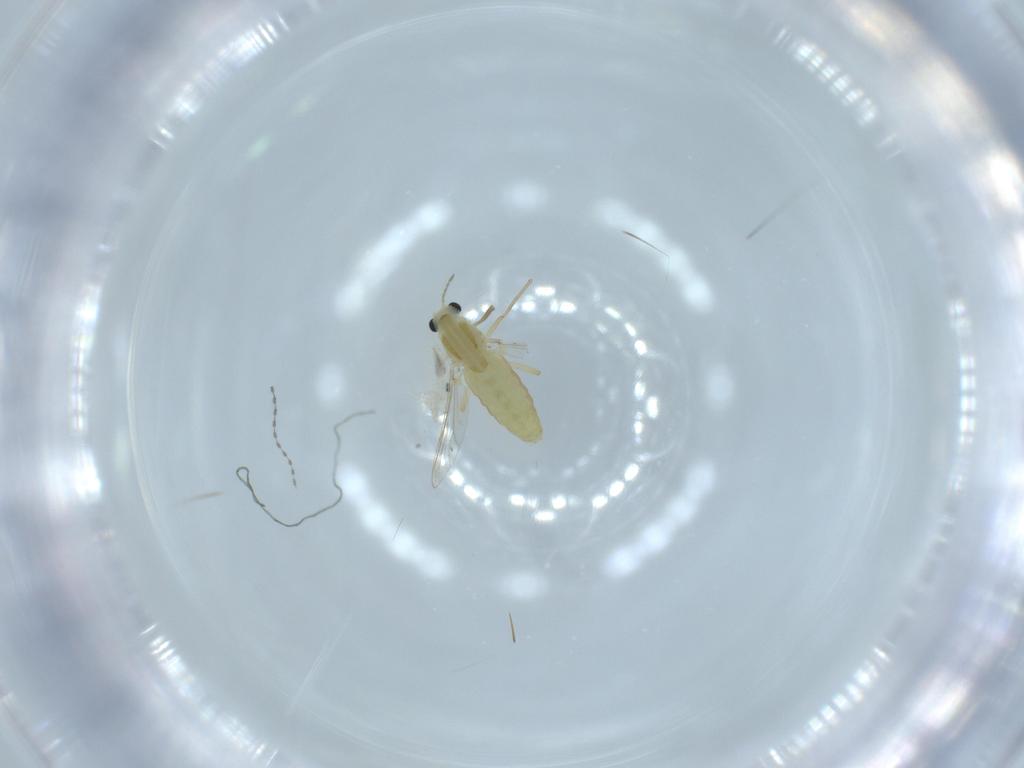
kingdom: Animalia
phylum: Arthropoda
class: Insecta
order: Diptera
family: Chironomidae
